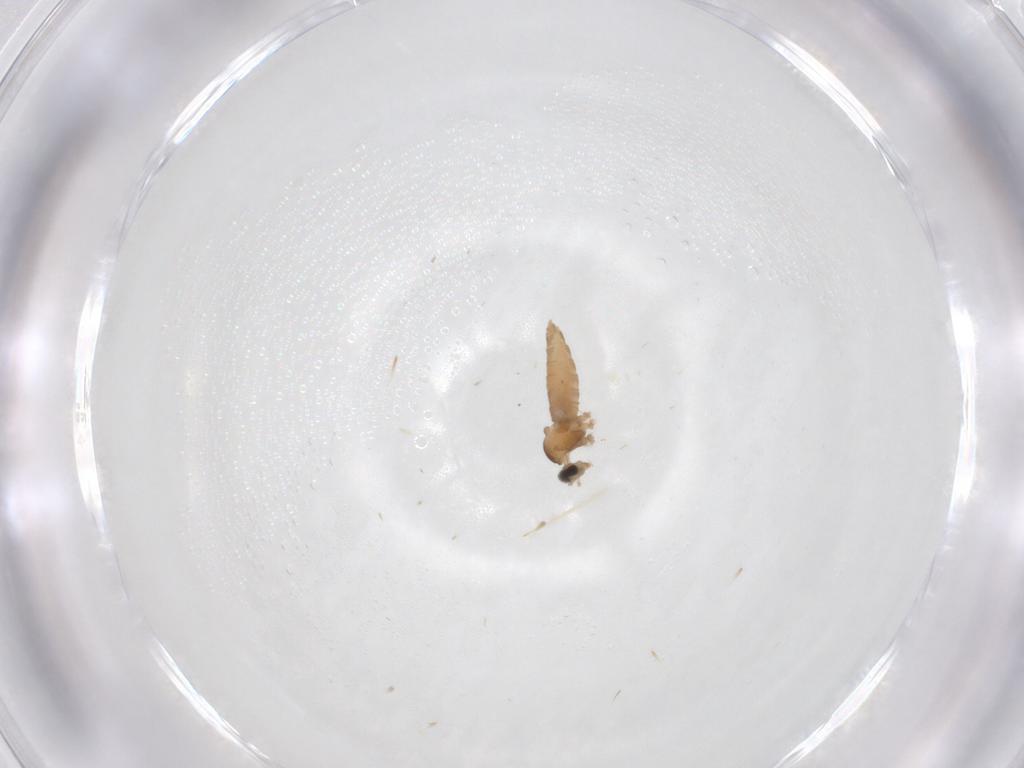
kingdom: Animalia
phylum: Arthropoda
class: Insecta
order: Diptera
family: Chironomidae
